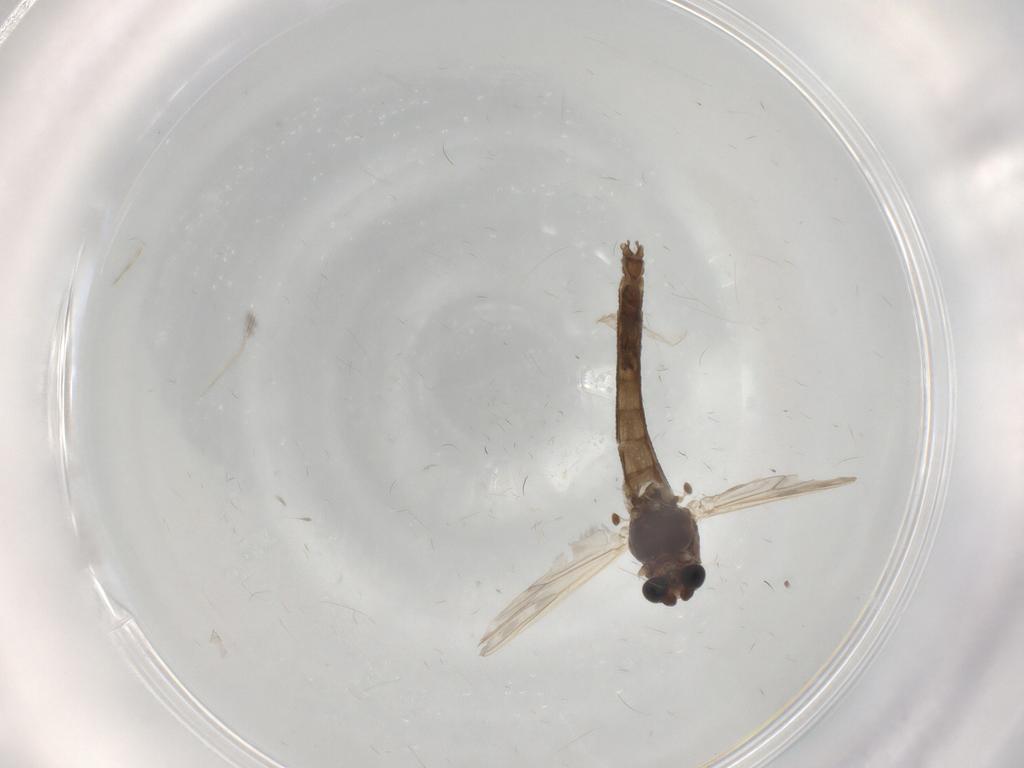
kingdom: Animalia
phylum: Arthropoda
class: Insecta
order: Diptera
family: Chironomidae
